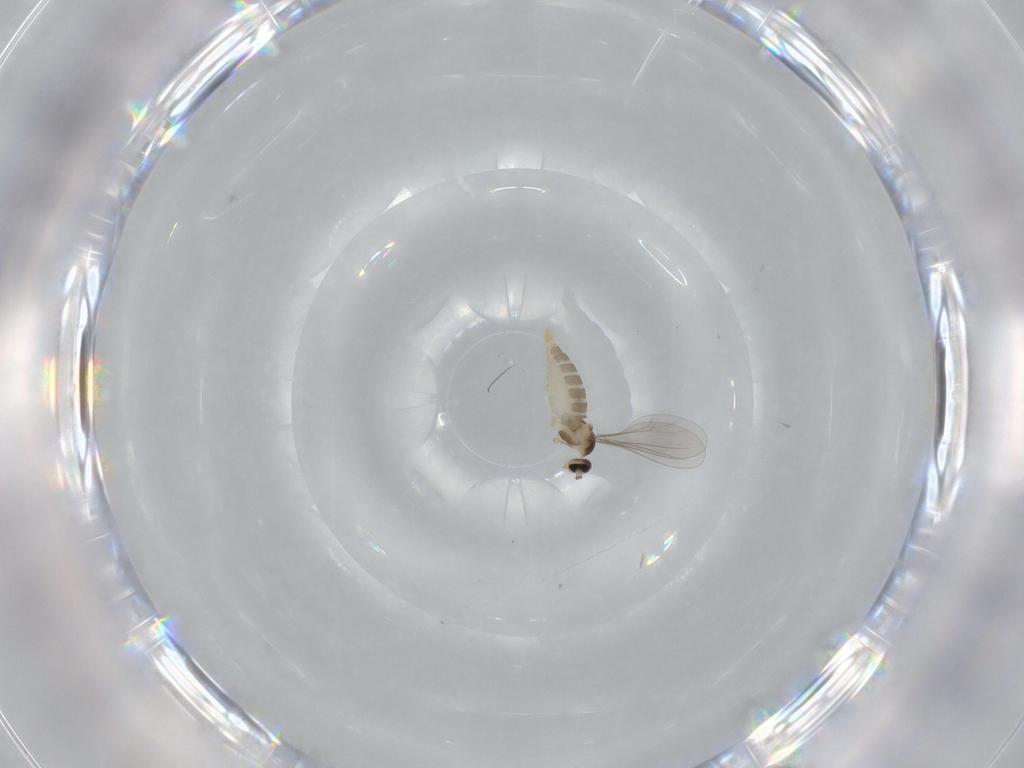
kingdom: Animalia
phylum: Arthropoda
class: Insecta
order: Diptera
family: Cecidomyiidae
